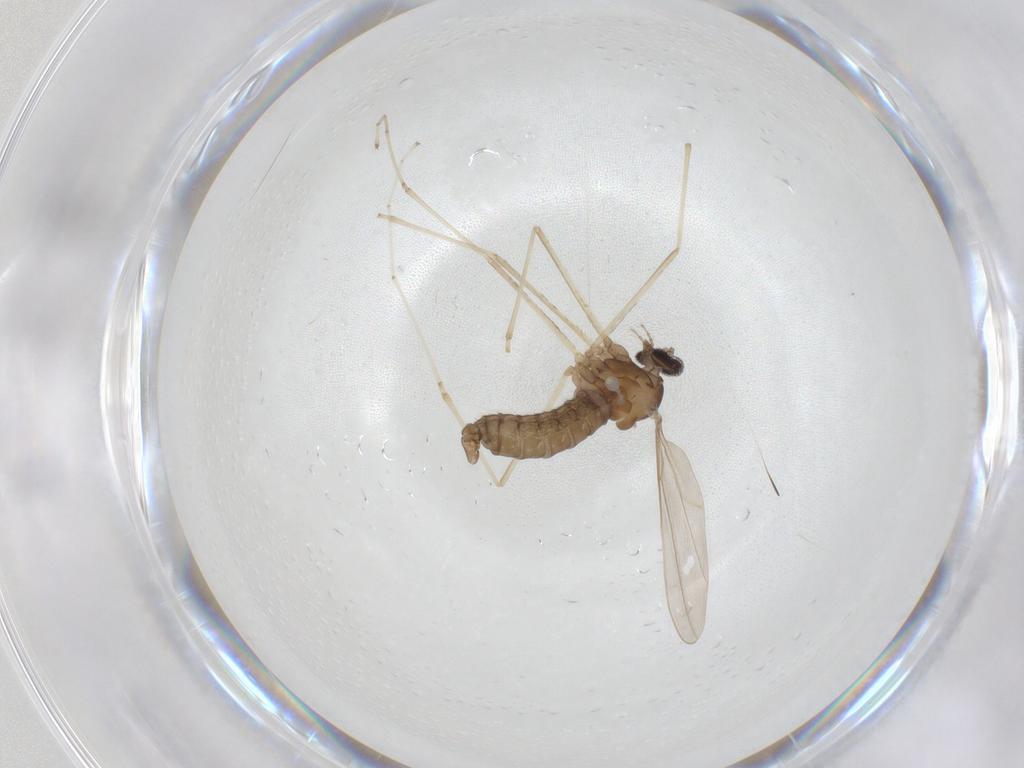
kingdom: Animalia
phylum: Arthropoda
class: Insecta
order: Diptera
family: Cecidomyiidae
